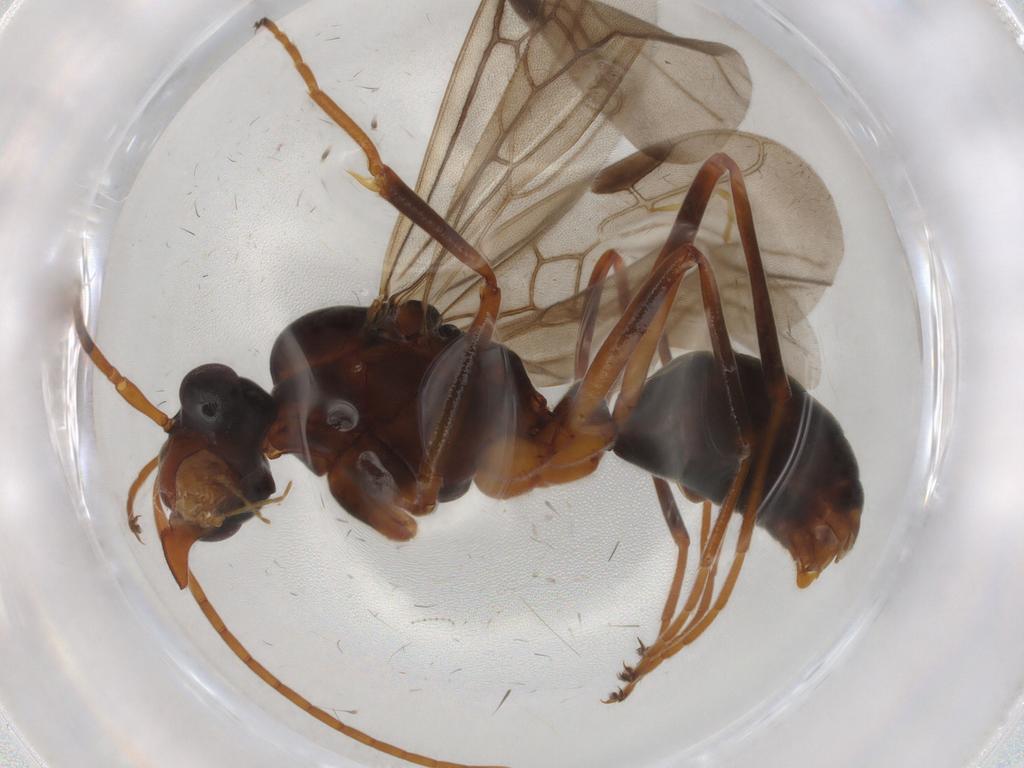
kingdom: Animalia
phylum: Arthropoda
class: Insecta
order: Hymenoptera
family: Formicidae
